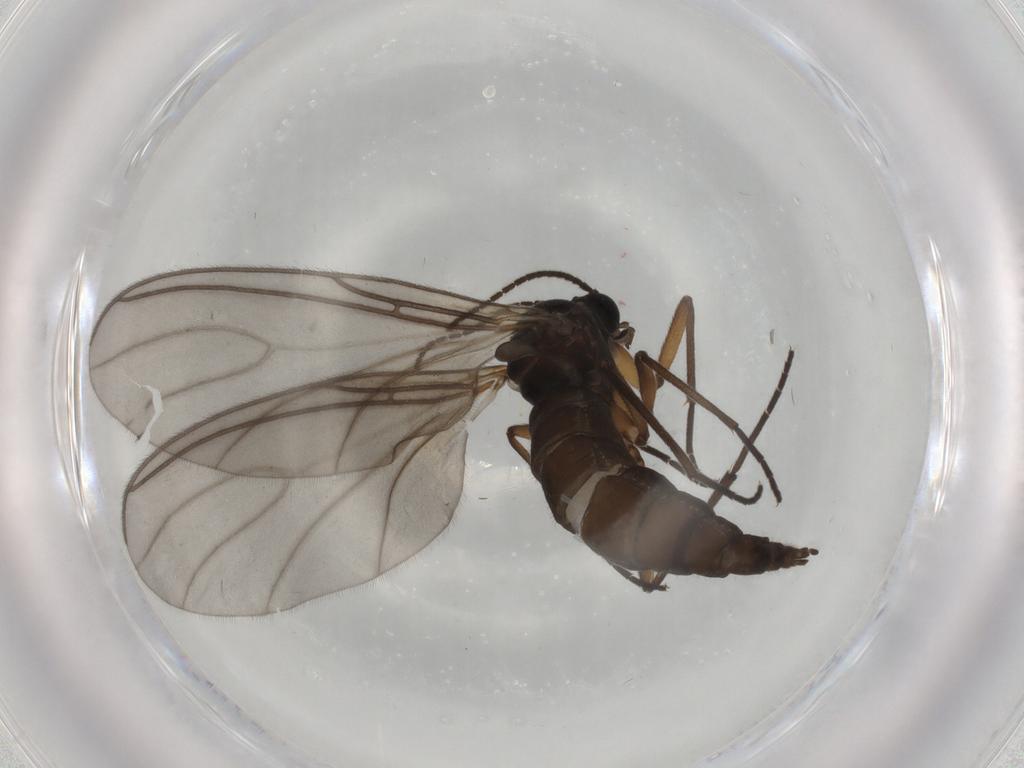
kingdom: Animalia
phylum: Arthropoda
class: Insecta
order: Diptera
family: Sciaridae
